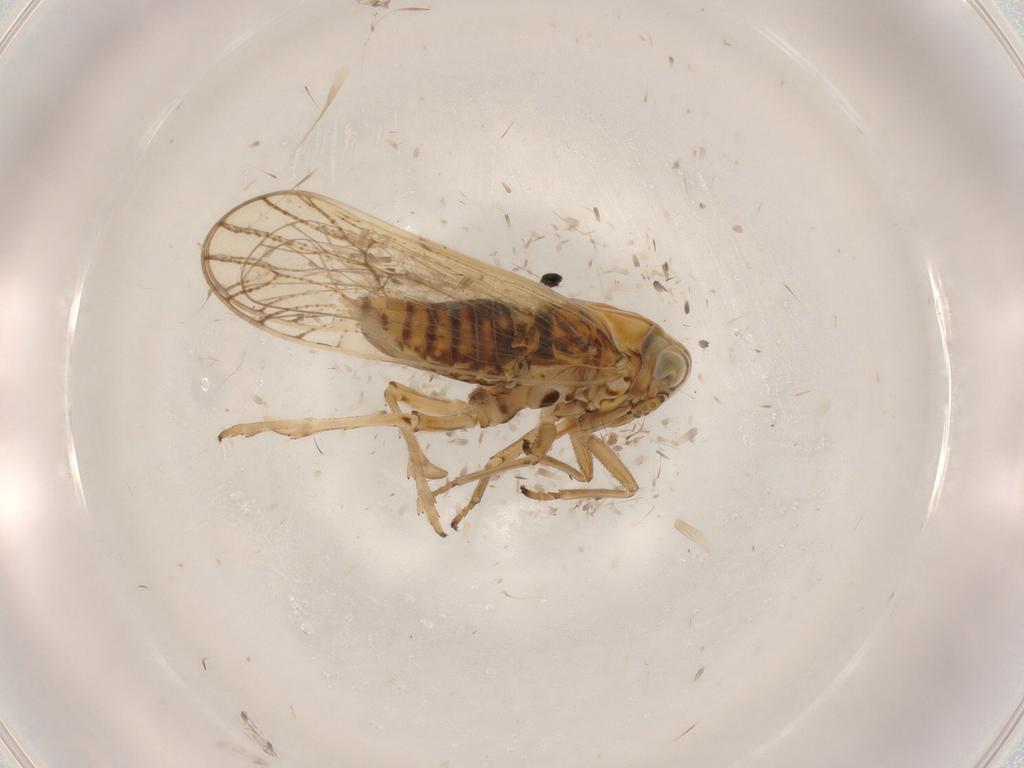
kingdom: Animalia
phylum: Arthropoda
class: Insecta
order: Hemiptera
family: Delphacidae
